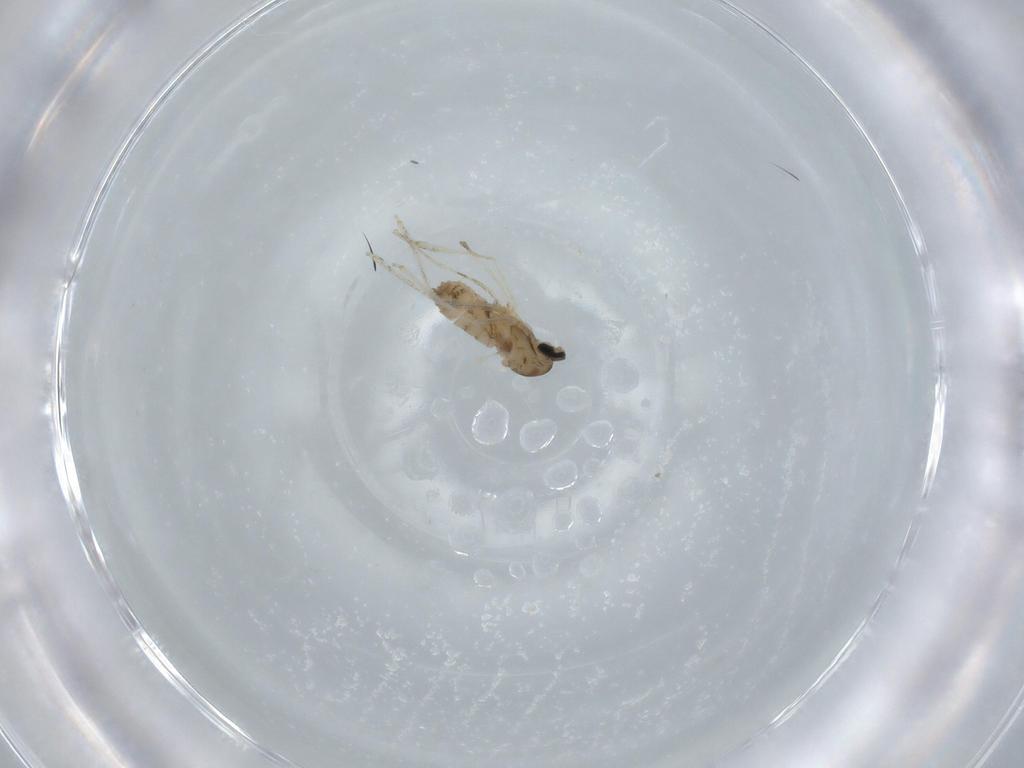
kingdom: Animalia
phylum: Arthropoda
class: Insecta
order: Diptera
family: Cecidomyiidae
